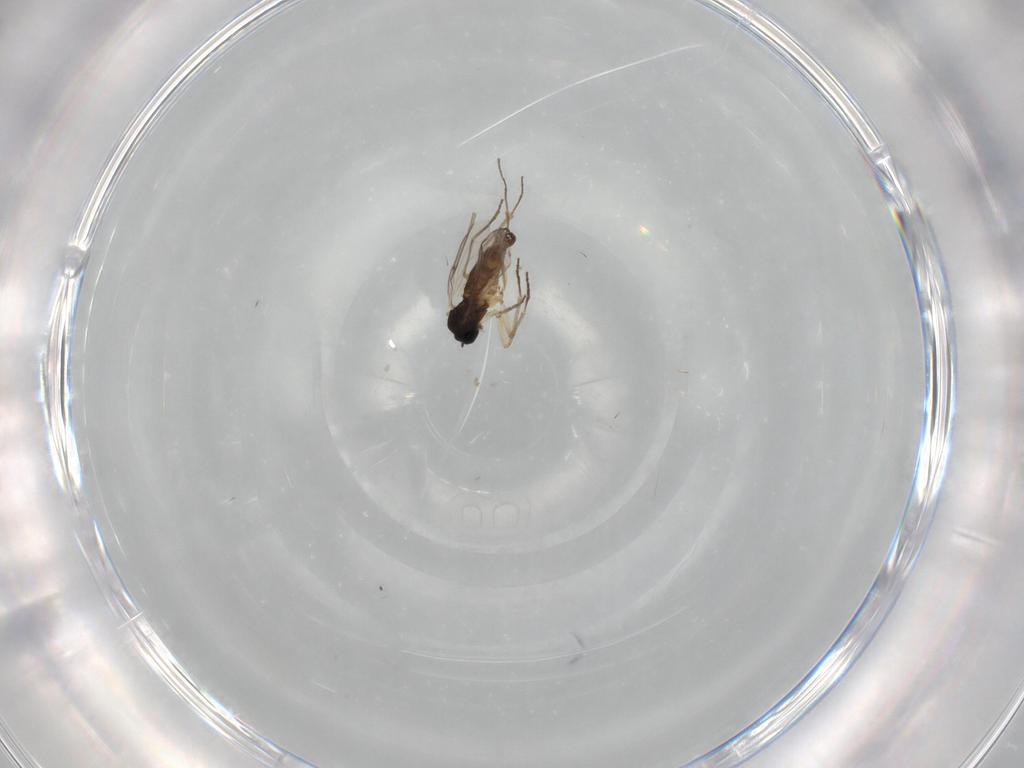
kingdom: Animalia
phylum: Arthropoda
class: Insecta
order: Diptera
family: Sciaridae
